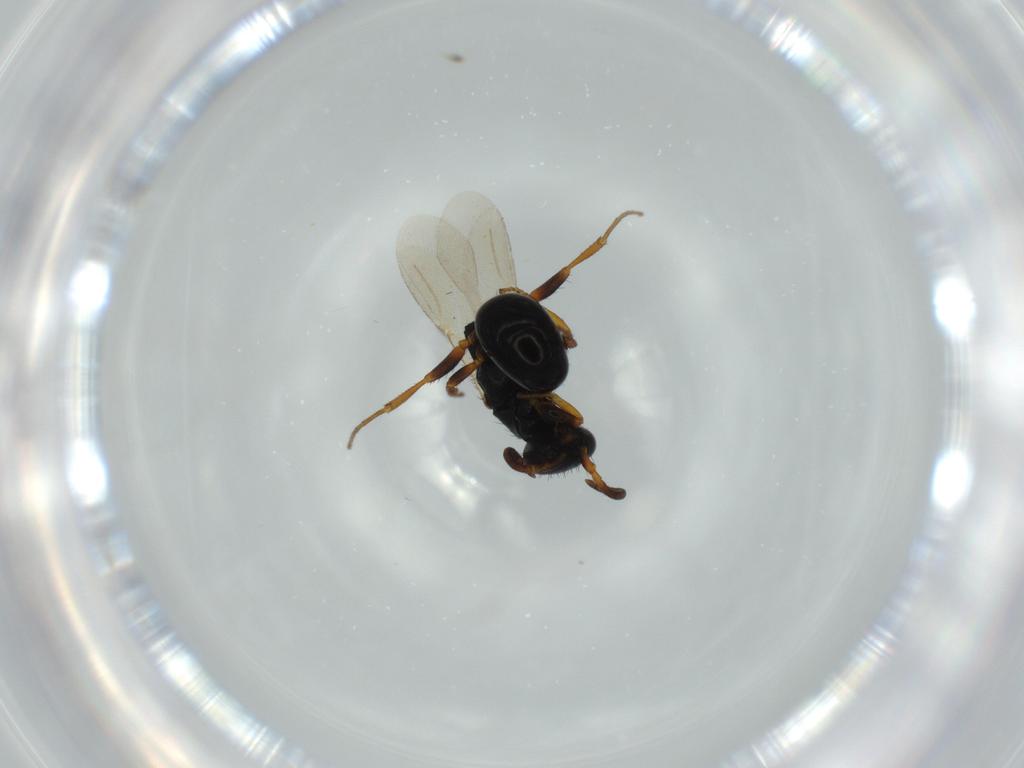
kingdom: Animalia
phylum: Arthropoda
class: Insecta
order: Hymenoptera
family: Bethylidae
